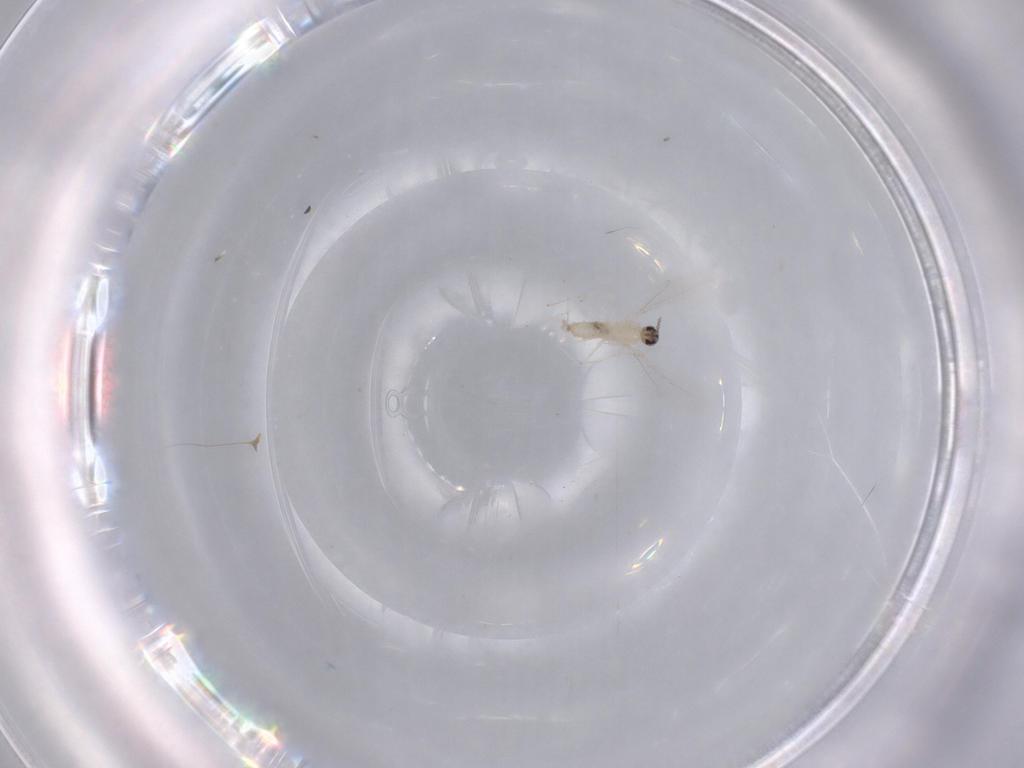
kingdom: Animalia
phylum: Arthropoda
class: Insecta
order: Diptera
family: Cecidomyiidae
